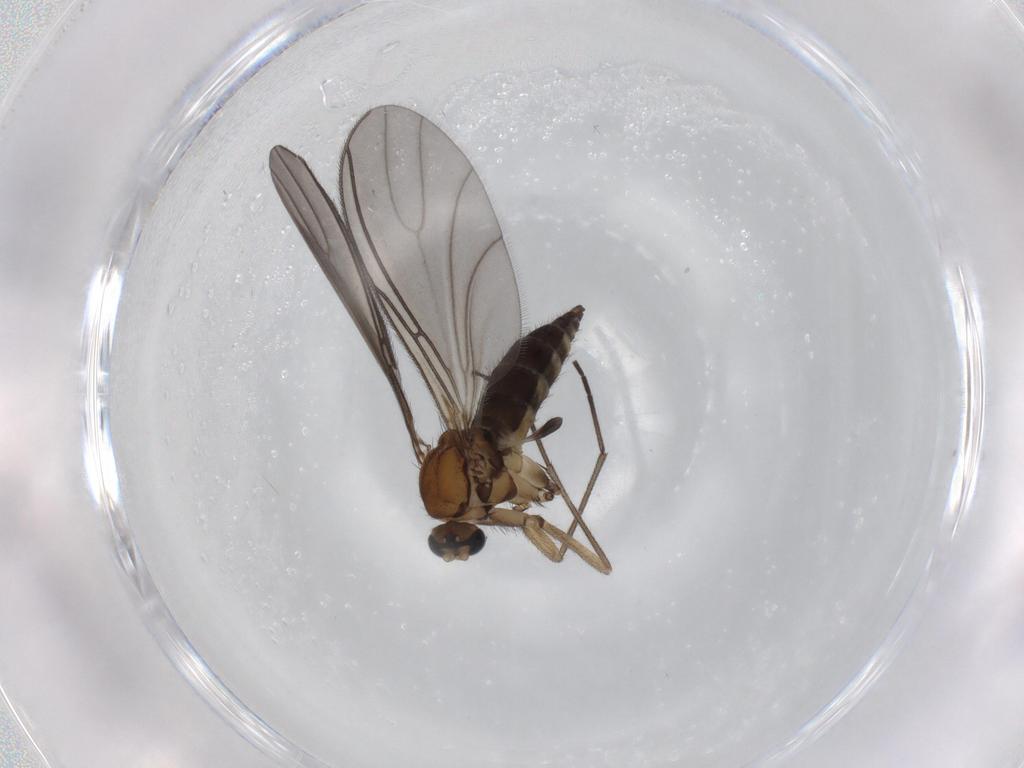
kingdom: Animalia
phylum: Arthropoda
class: Insecta
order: Diptera
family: Sciaridae
